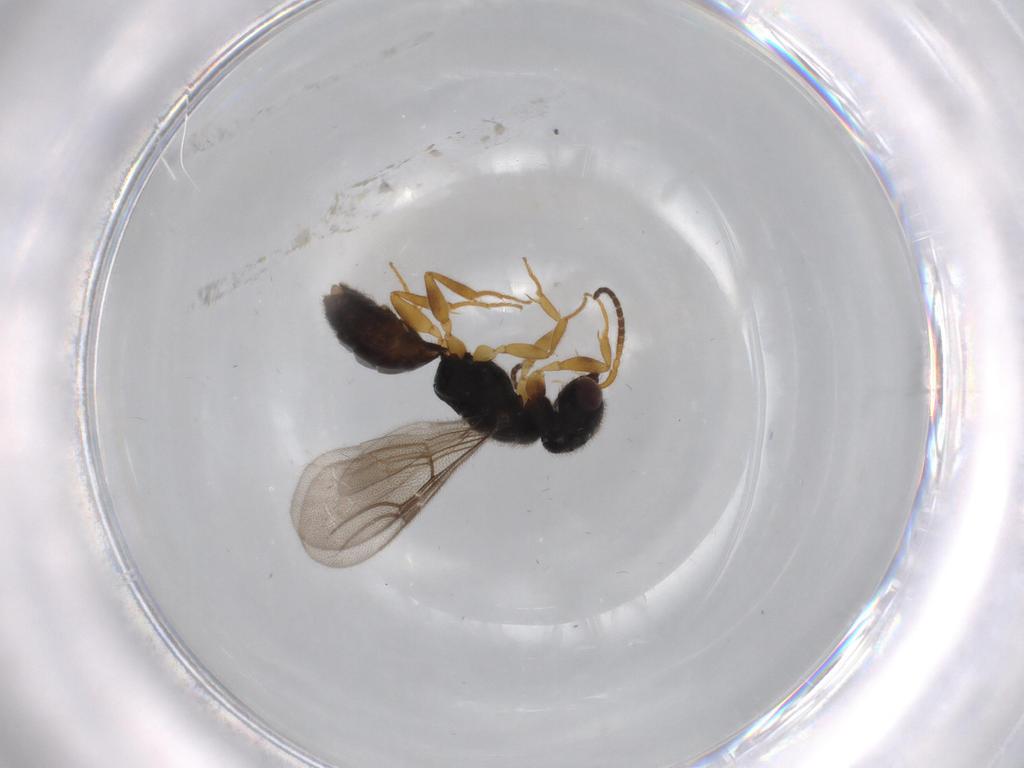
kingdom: Animalia
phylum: Arthropoda
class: Insecta
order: Hymenoptera
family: Bethylidae
